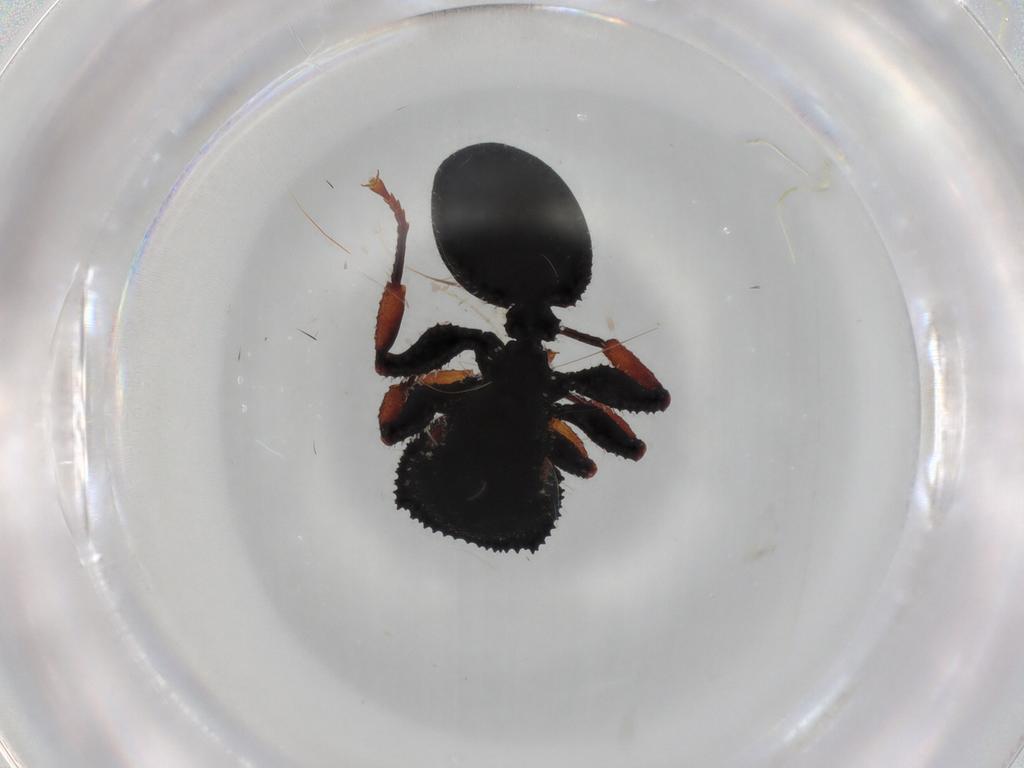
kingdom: Animalia
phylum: Arthropoda
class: Insecta
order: Hymenoptera
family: Formicidae
